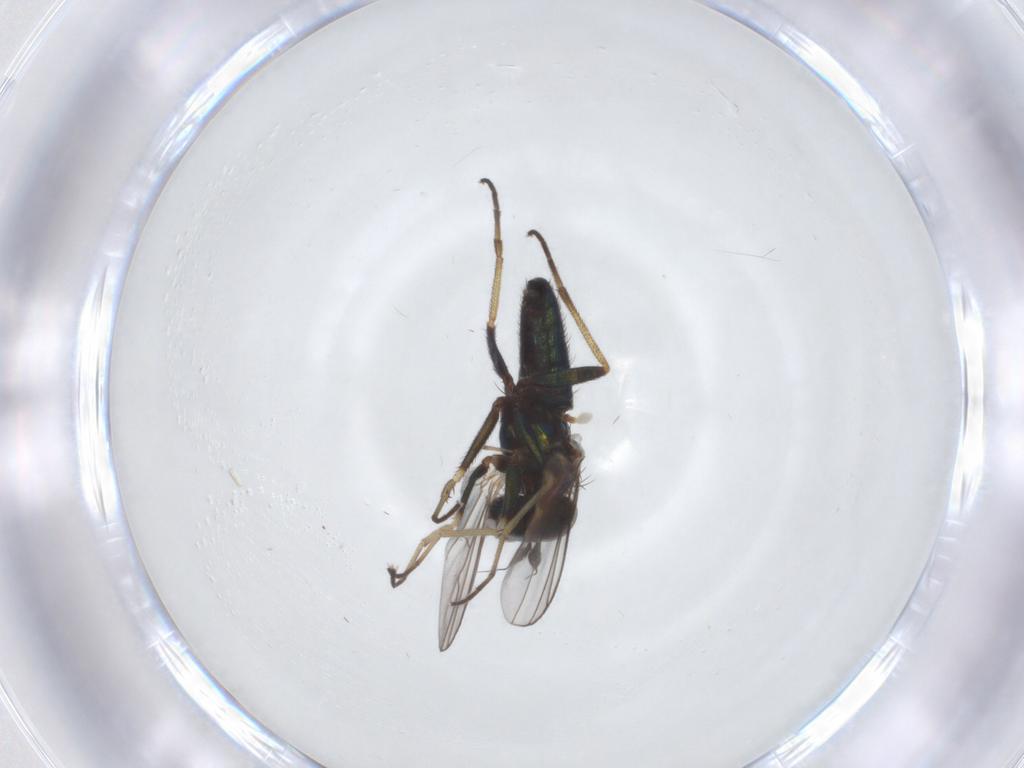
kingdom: Animalia
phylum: Arthropoda
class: Insecta
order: Diptera
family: Dolichopodidae
